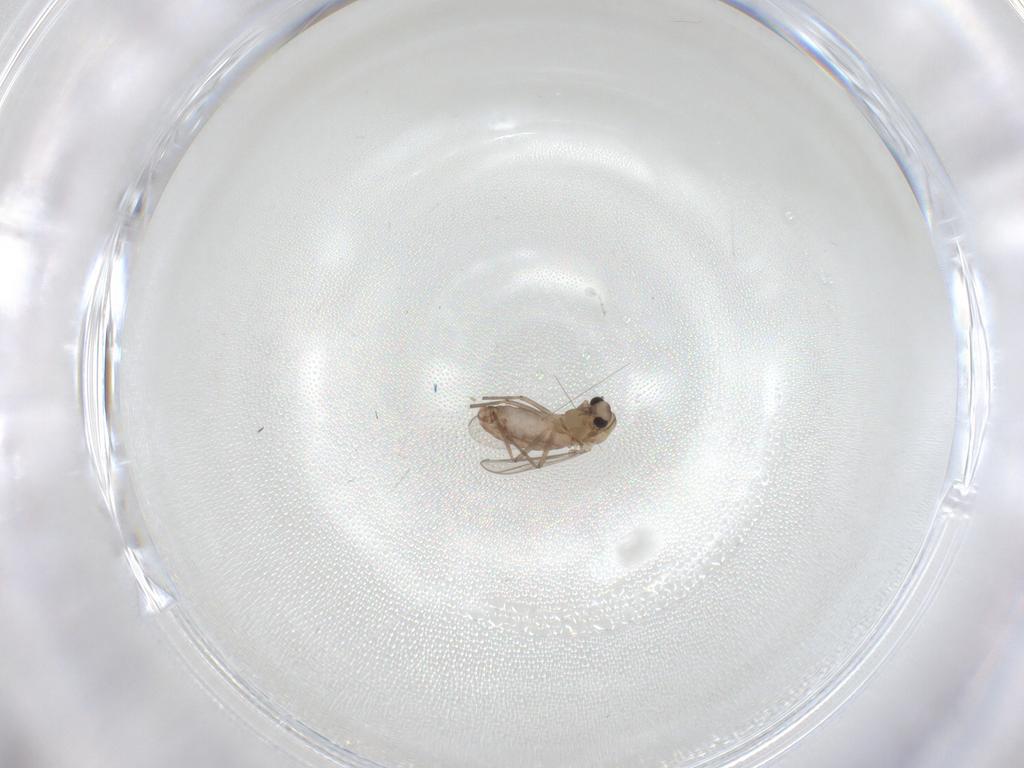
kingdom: Animalia
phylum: Arthropoda
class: Insecta
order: Diptera
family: Chironomidae
